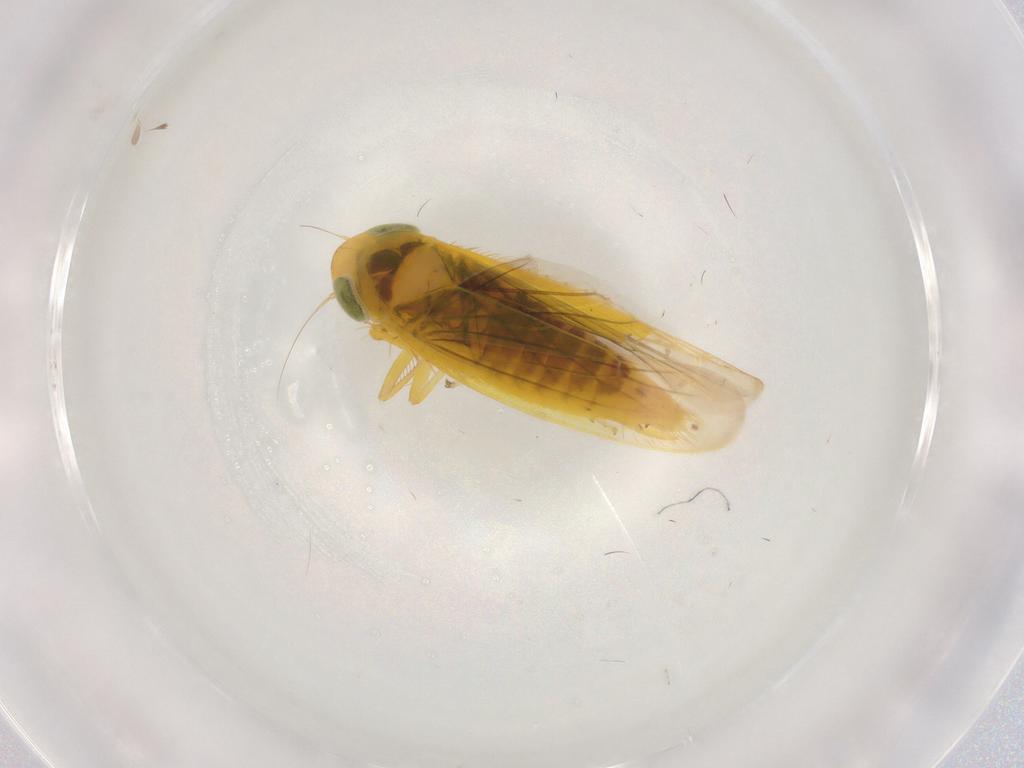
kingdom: Animalia
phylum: Arthropoda
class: Insecta
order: Hemiptera
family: Cicadellidae
